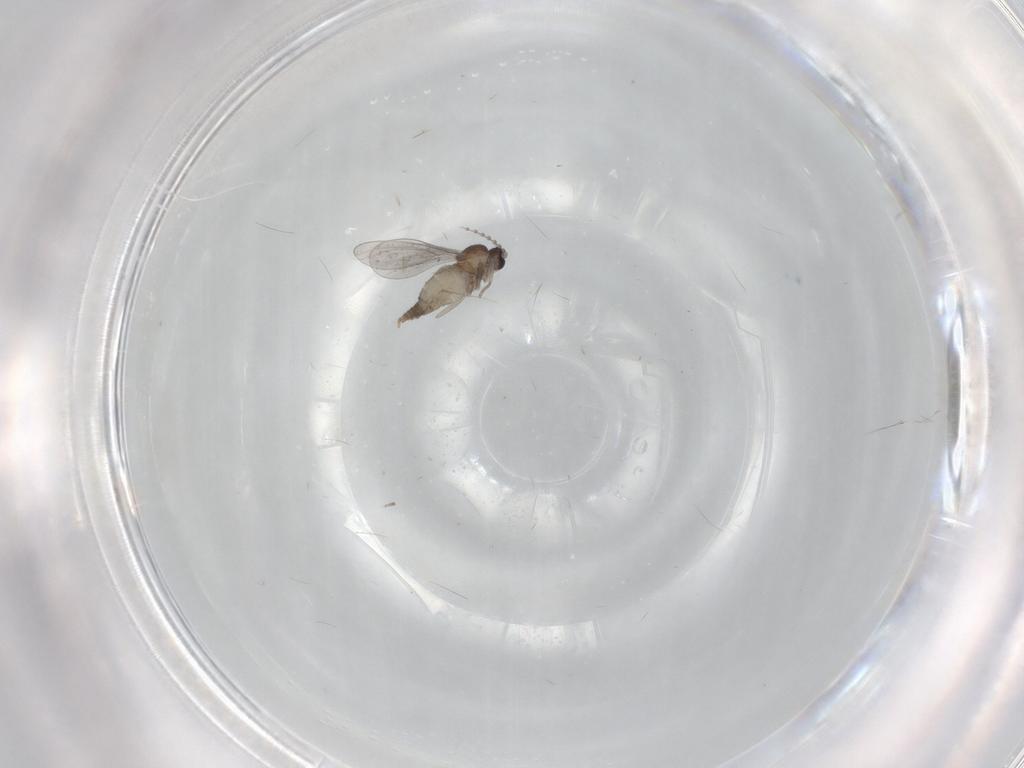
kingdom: Animalia
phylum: Arthropoda
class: Insecta
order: Diptera
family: Cecidomyiidae
